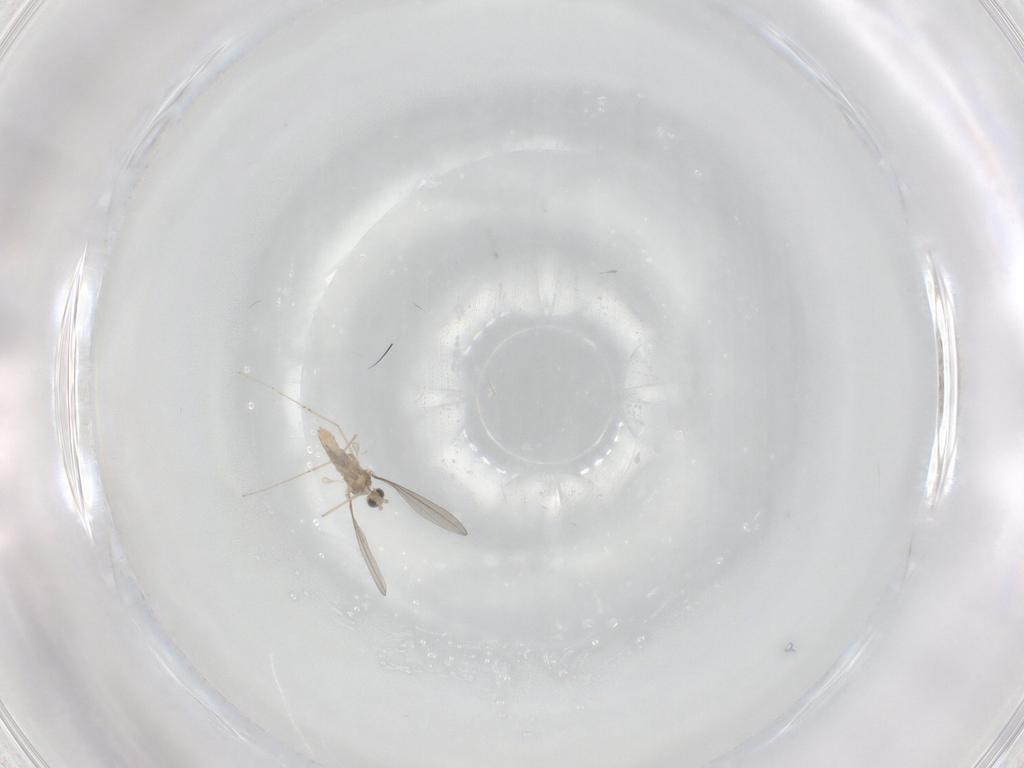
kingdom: Animalia
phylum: Arthropoda
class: Insecta
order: Diptera
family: Cecidomyiidae
